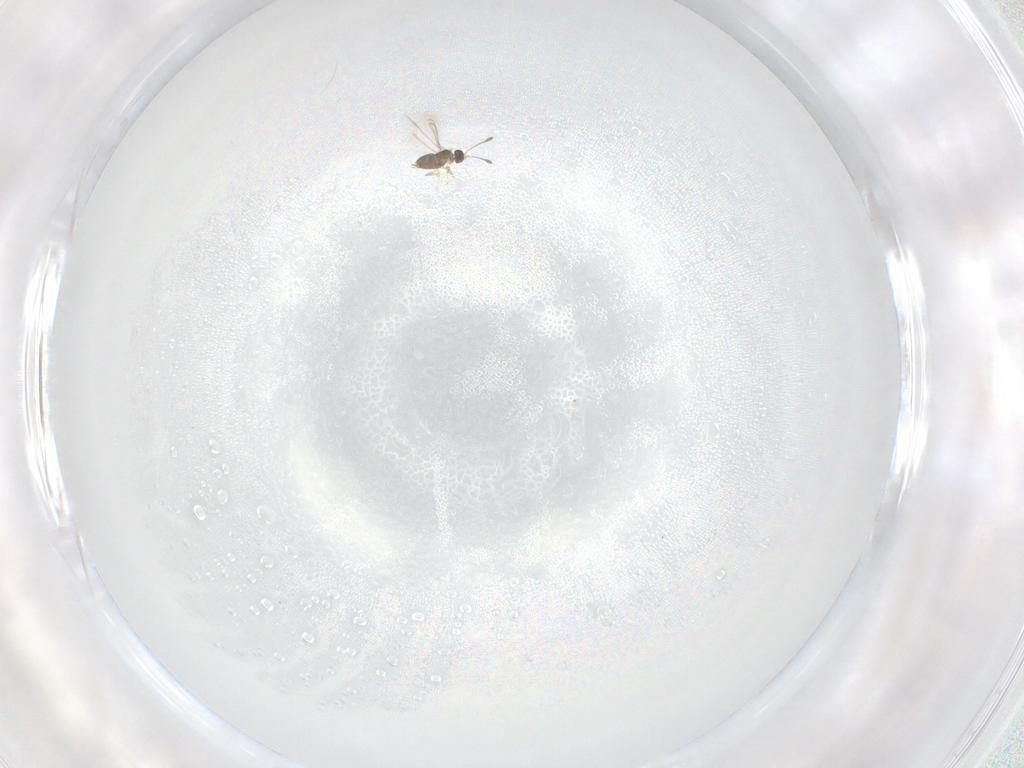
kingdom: Animalia
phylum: Arthropoda
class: Insecta
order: Hymenoptera
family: Mymaridae
